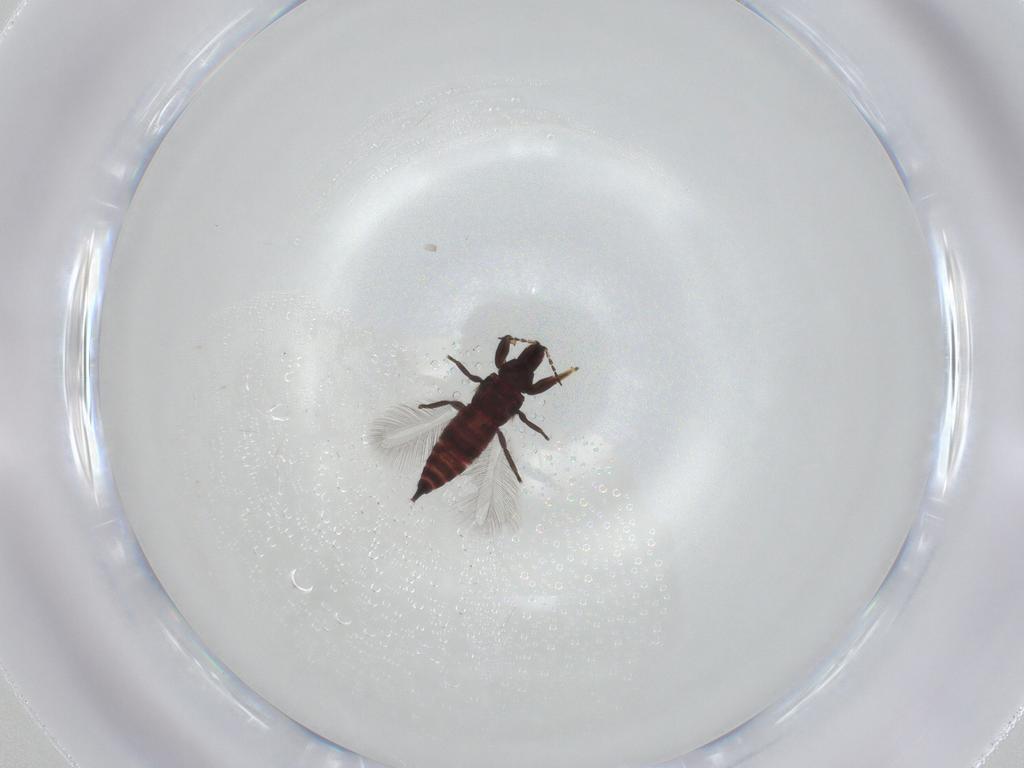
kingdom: Animalia
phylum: Arthropoda
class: Insecta
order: Thysanoptera
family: Phlaeothripidae
